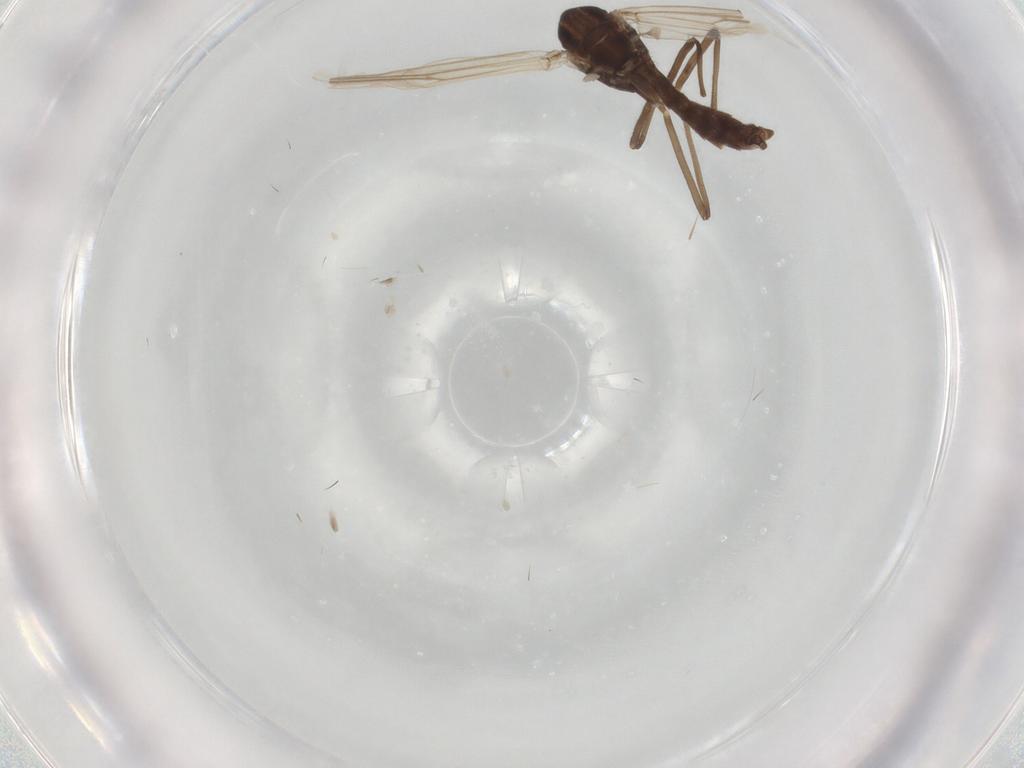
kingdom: Animalia
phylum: Arthropoda
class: Insecta
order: Diptera
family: Chironomidae
